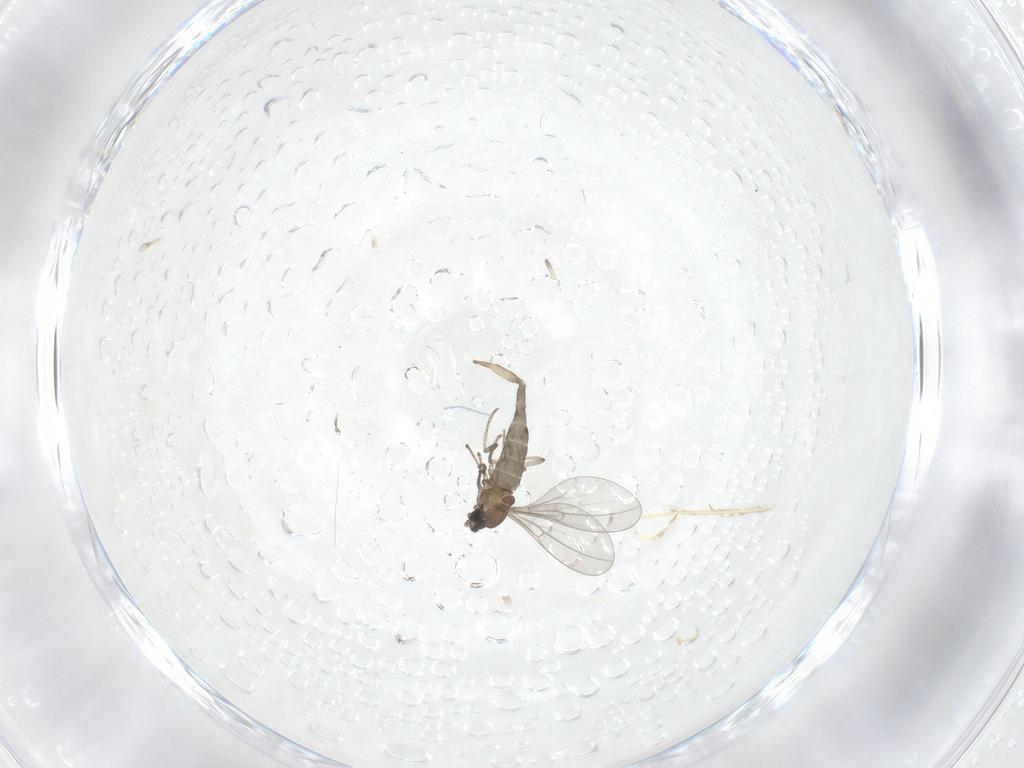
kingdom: Animalia
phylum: Arthropoda
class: Insecta
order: Diptera
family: Cecidomyiidae
